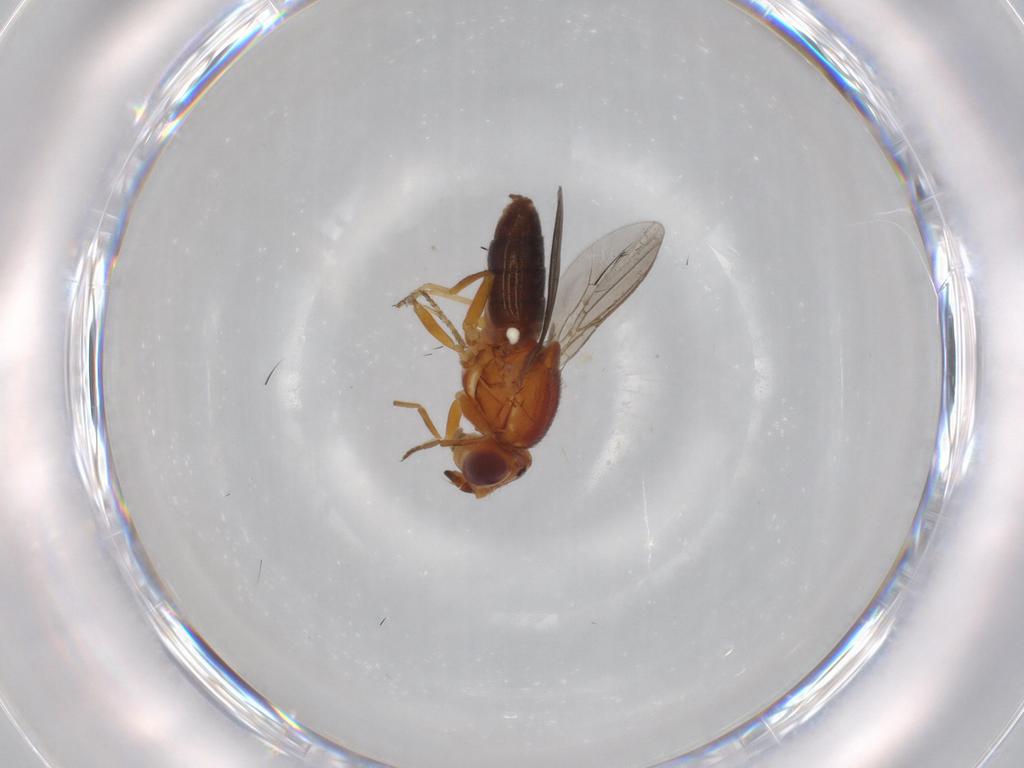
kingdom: Animalia
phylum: Arthropoda
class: Insecta
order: Diptera
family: Chloropidae
